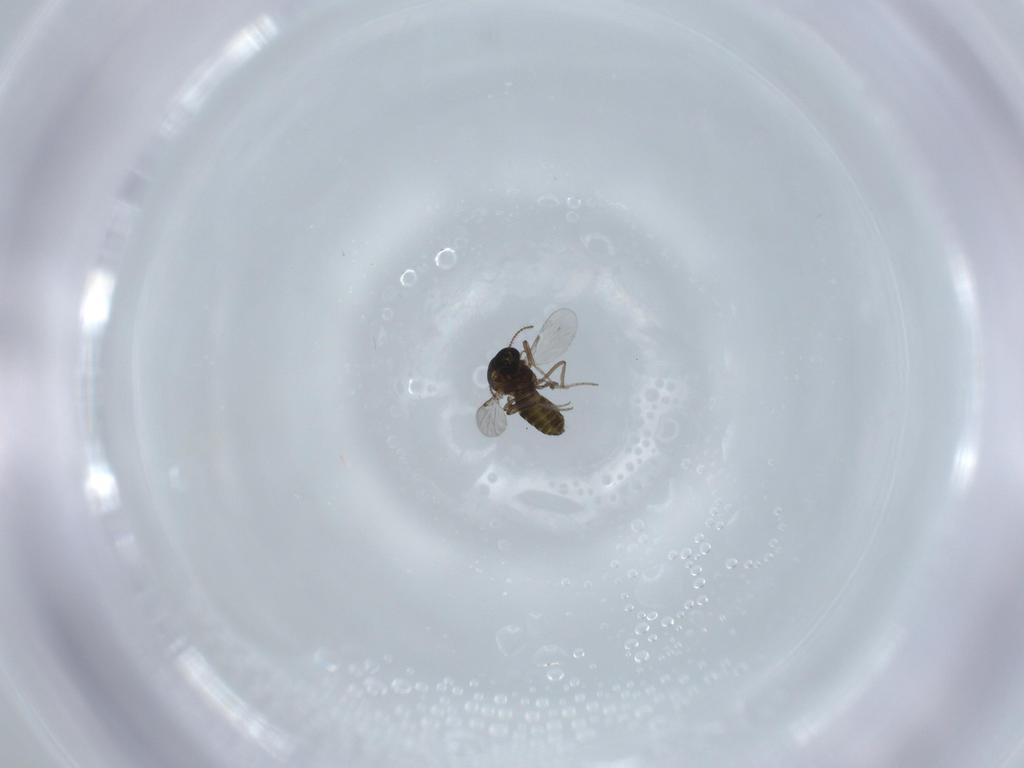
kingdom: Animalia
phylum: Arthropoda
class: Insecta
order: Diptera
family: Ceratopogonidae
